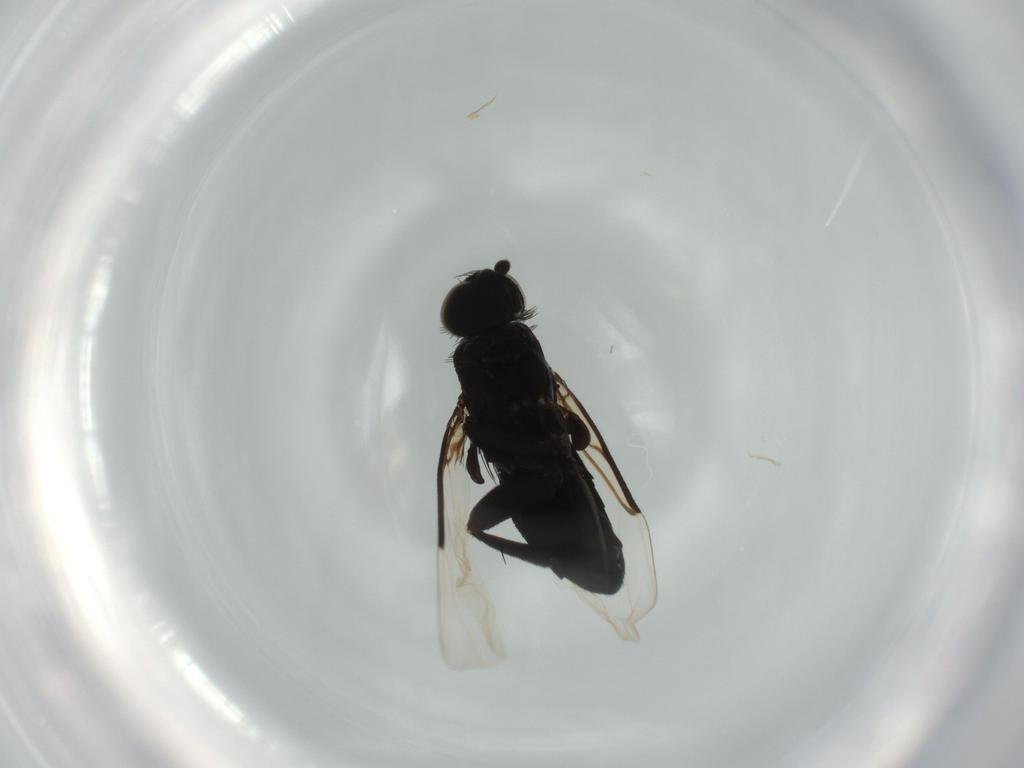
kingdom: Animalia
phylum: Arthropoda
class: Insecta
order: Diptera
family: Syrphidae
